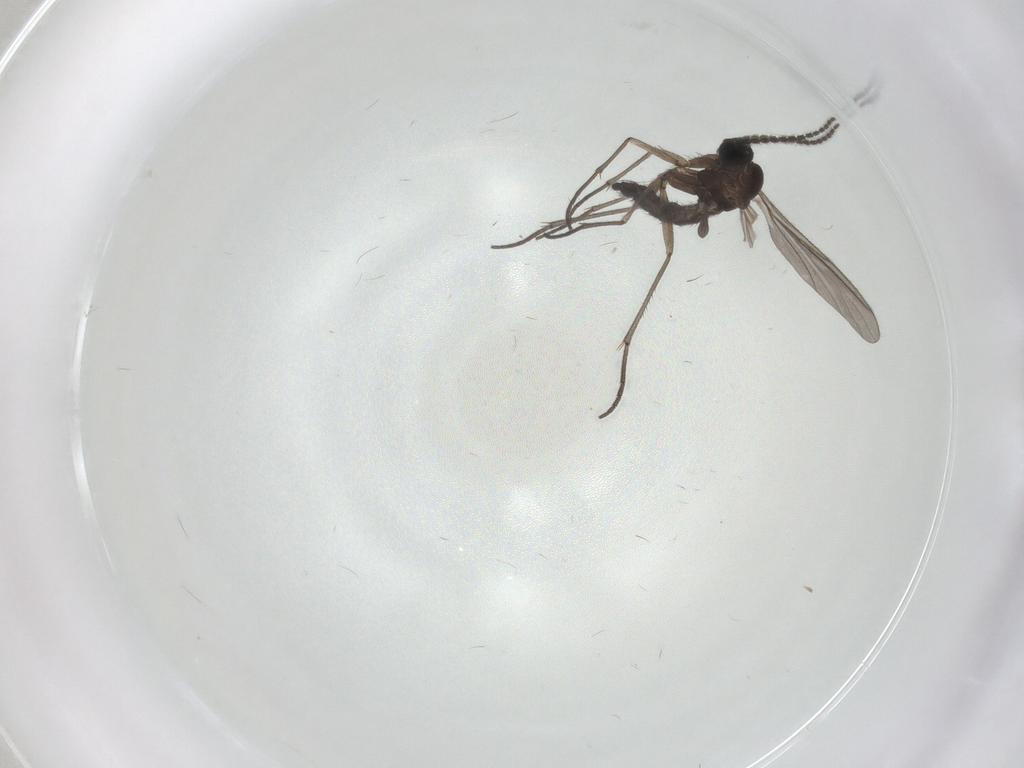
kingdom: Animalia
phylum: Arthropoda
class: Insecta
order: Diptera
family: Sciaridae
